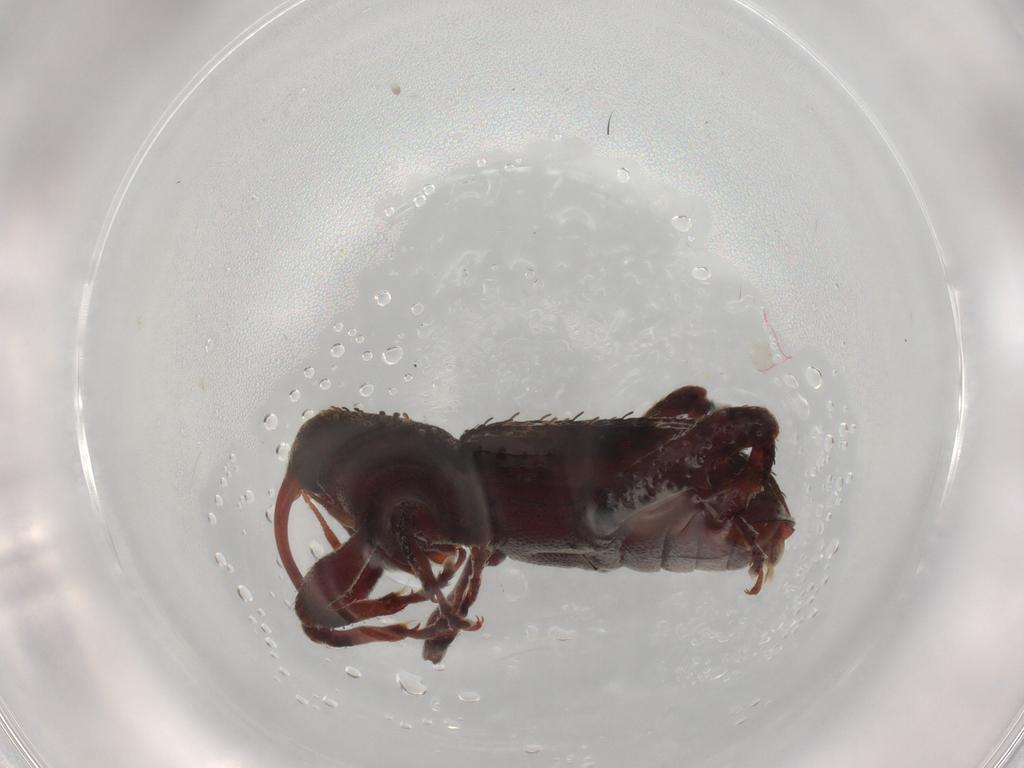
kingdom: Animalia
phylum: Arthropoda
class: Insecta
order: Coleoptera
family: Curculionidae
